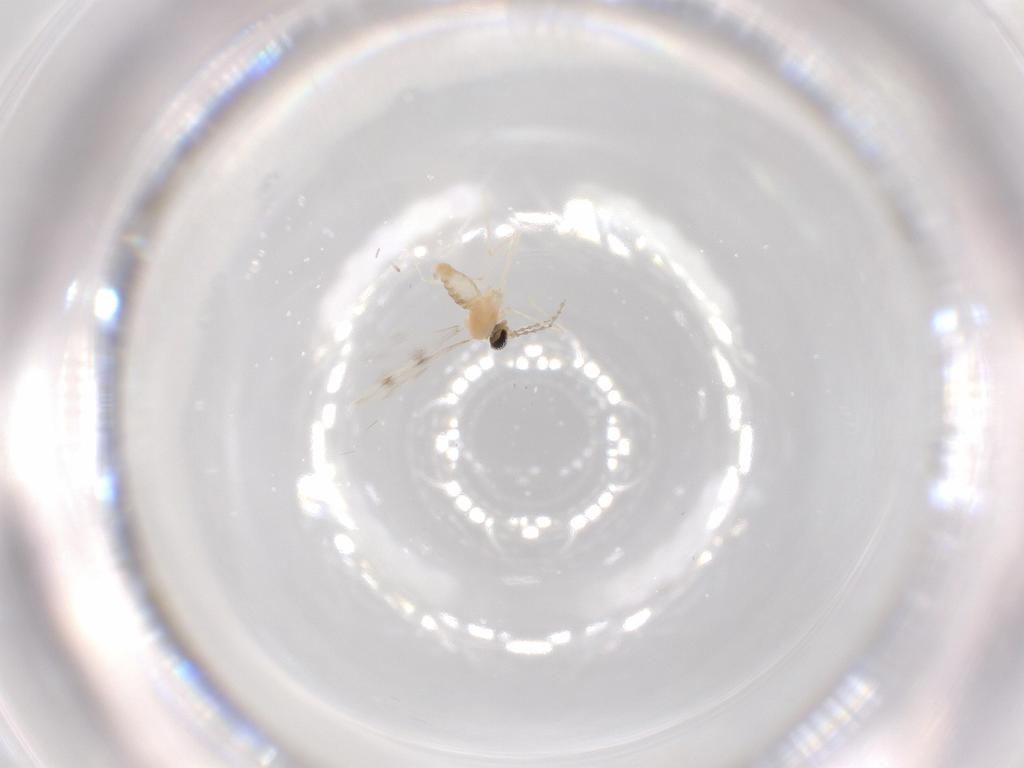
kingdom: Animalia
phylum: Arthropoda
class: Insecta
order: Diptera
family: Cecidomyiidae
